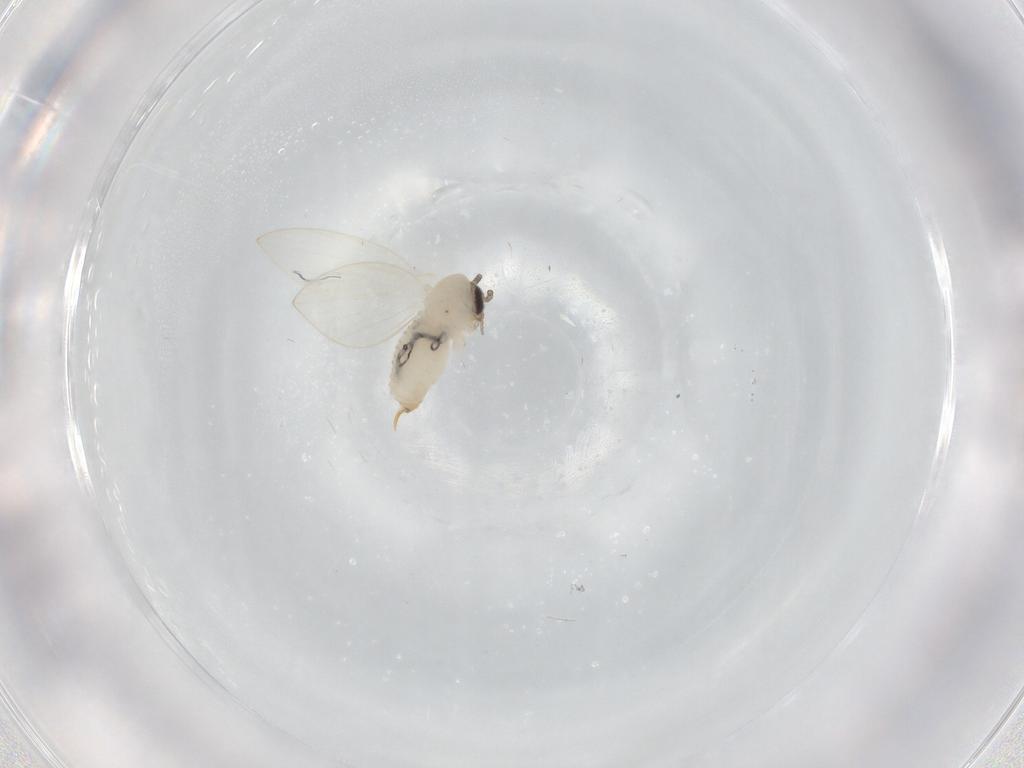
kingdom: Animalia
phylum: Arthropoda
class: Insecta
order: Diptera
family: Psychodidae
